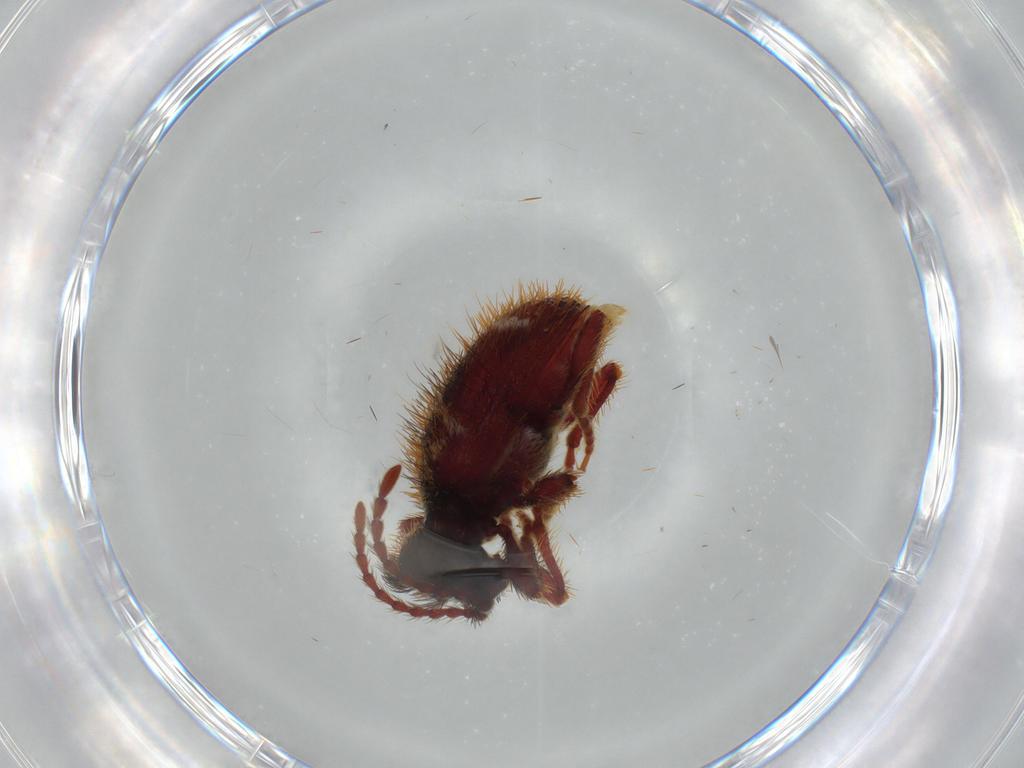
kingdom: Animalia
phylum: Arthropoda
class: Insecta
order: Coleoptera
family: Ptinidae
